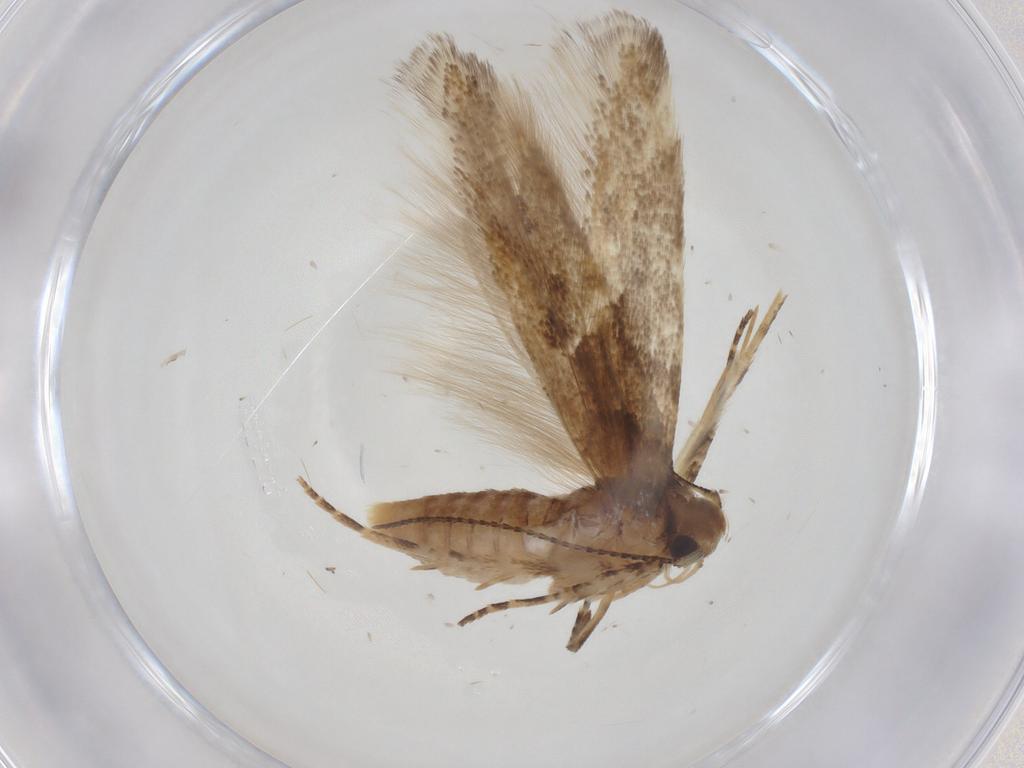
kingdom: Animalia
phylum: Arthropoda
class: Insecta
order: Lepidoptera
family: Gelechiidae
